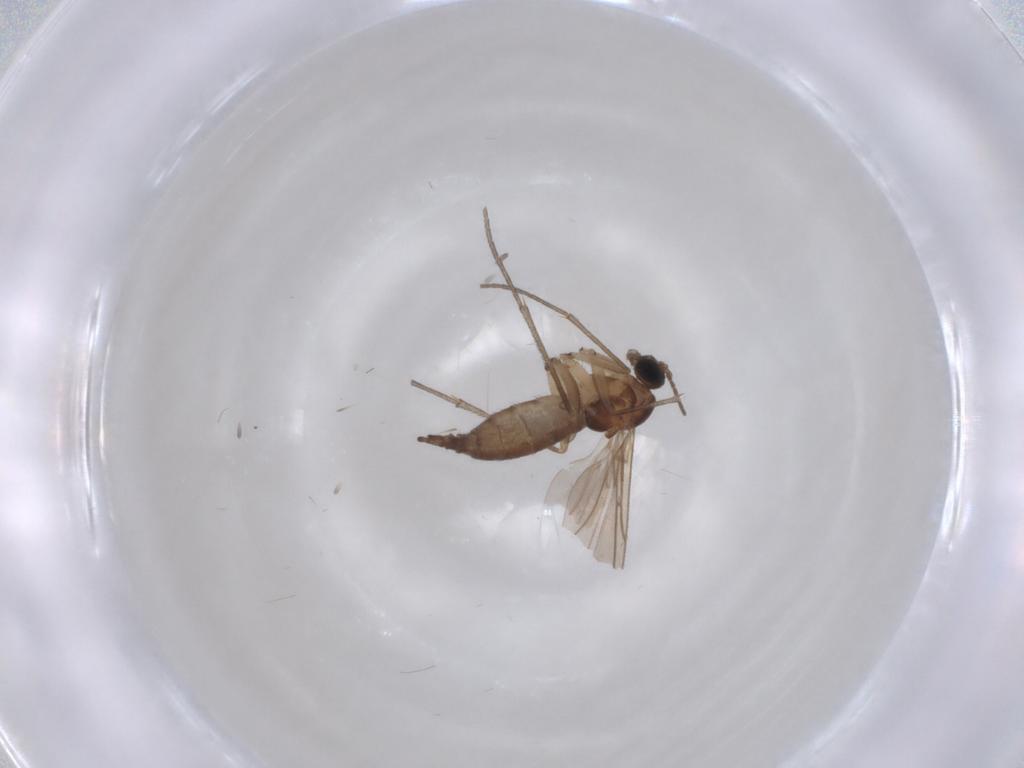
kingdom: Animalia
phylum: Arthropoda
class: Insecta
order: Diptera
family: Sciaridae
